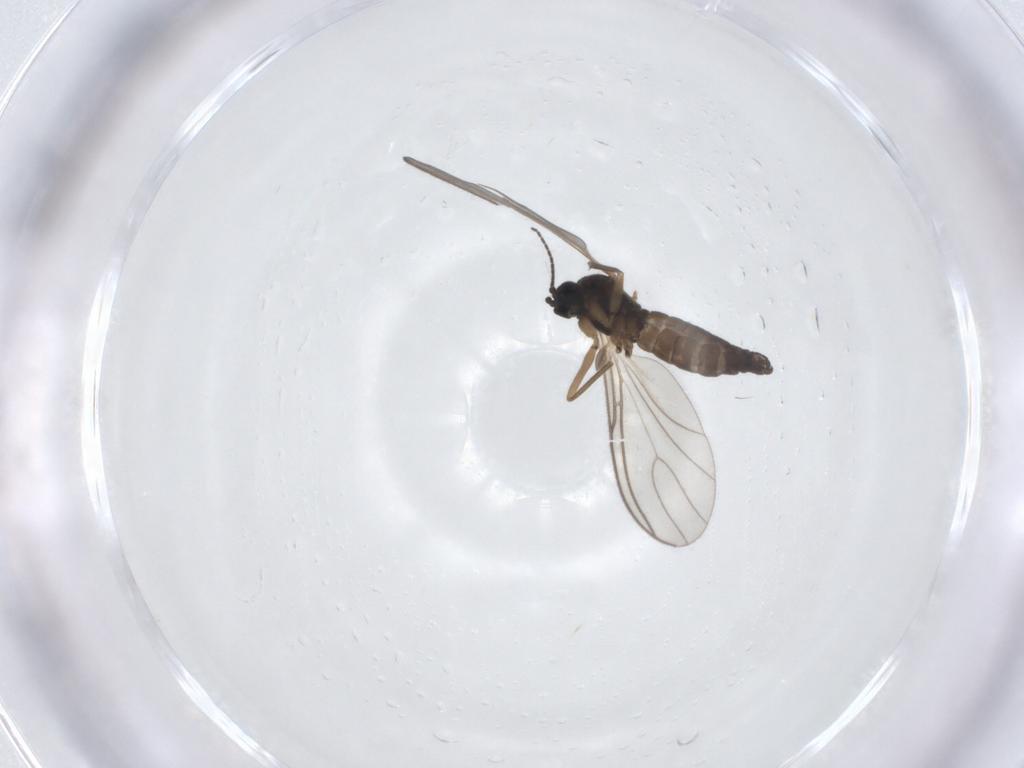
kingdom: Animalia
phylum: Arthropoda
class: Insecta
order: Diptera
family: Sciaridae
